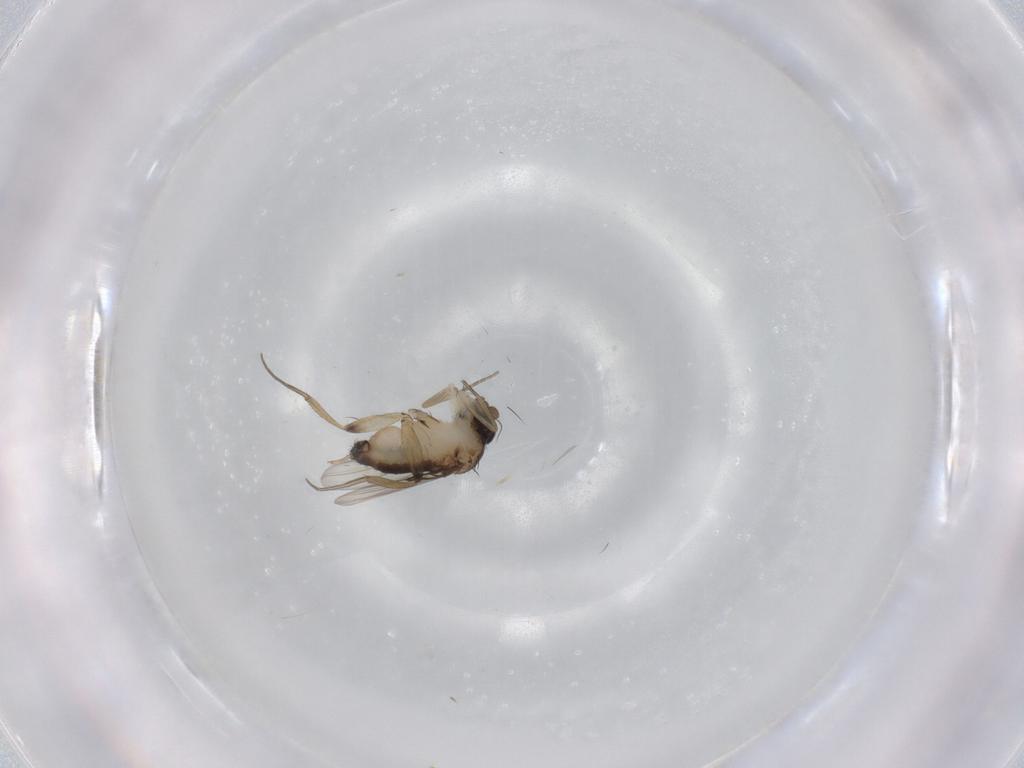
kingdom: Animalia
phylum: Arthropoda
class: Insecta
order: Diptera
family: Phoridae
